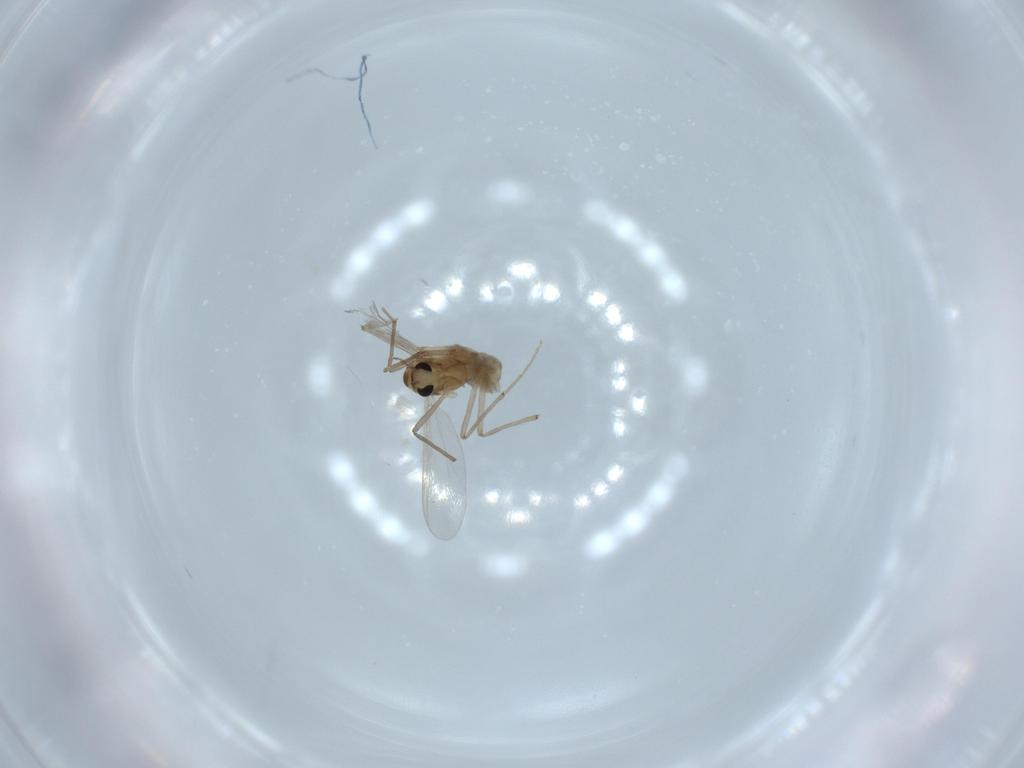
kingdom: Animalia
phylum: Arthropoda
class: Insecta
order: Diptera
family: Chironomidae
